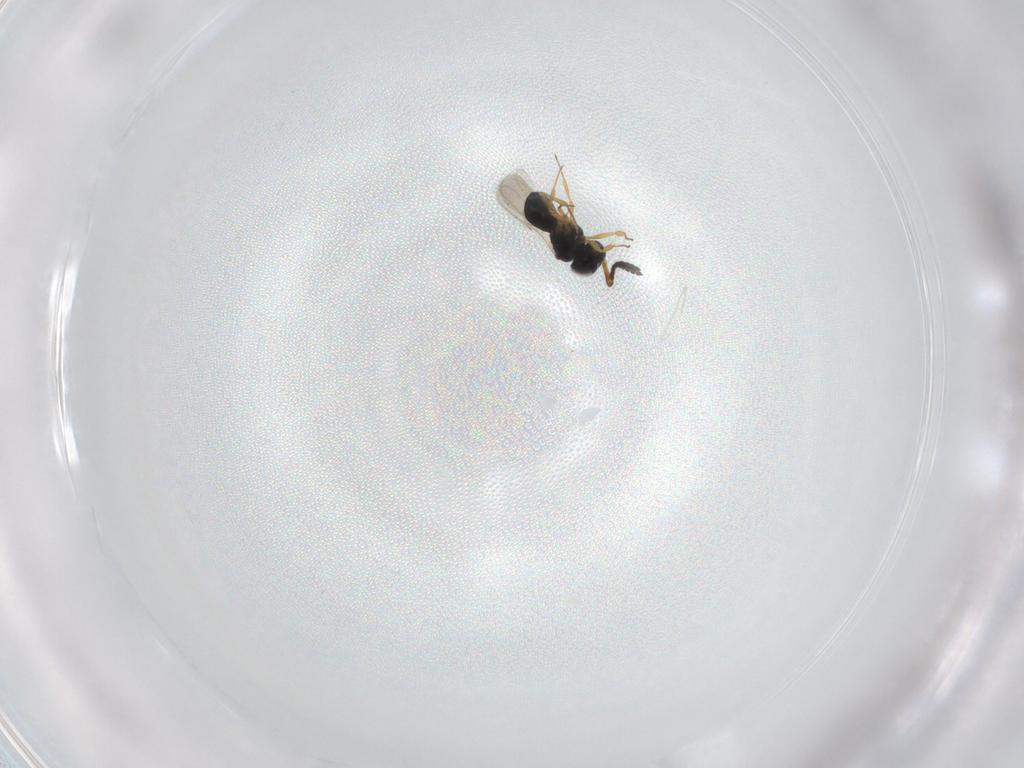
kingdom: Animalia
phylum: Arthropoda
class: Insecta
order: Hymenoptera
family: Scelionidae
